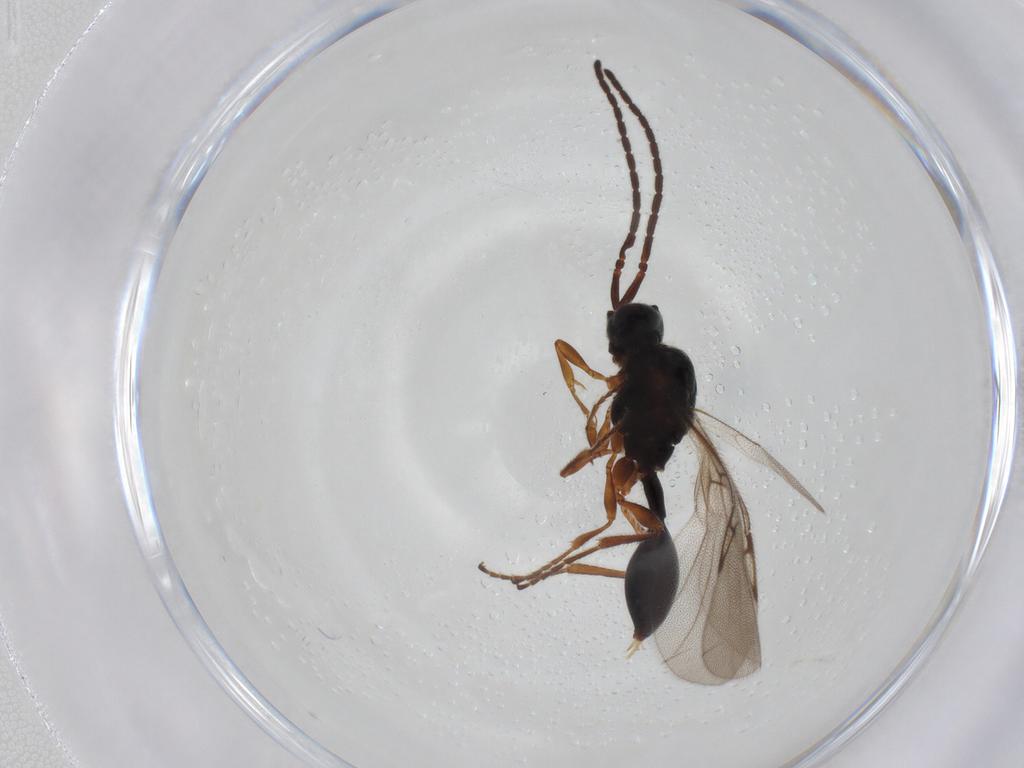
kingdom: Animalia
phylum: Arthropoda
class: Insecta
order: Hymenoptera
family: Diapriidae
